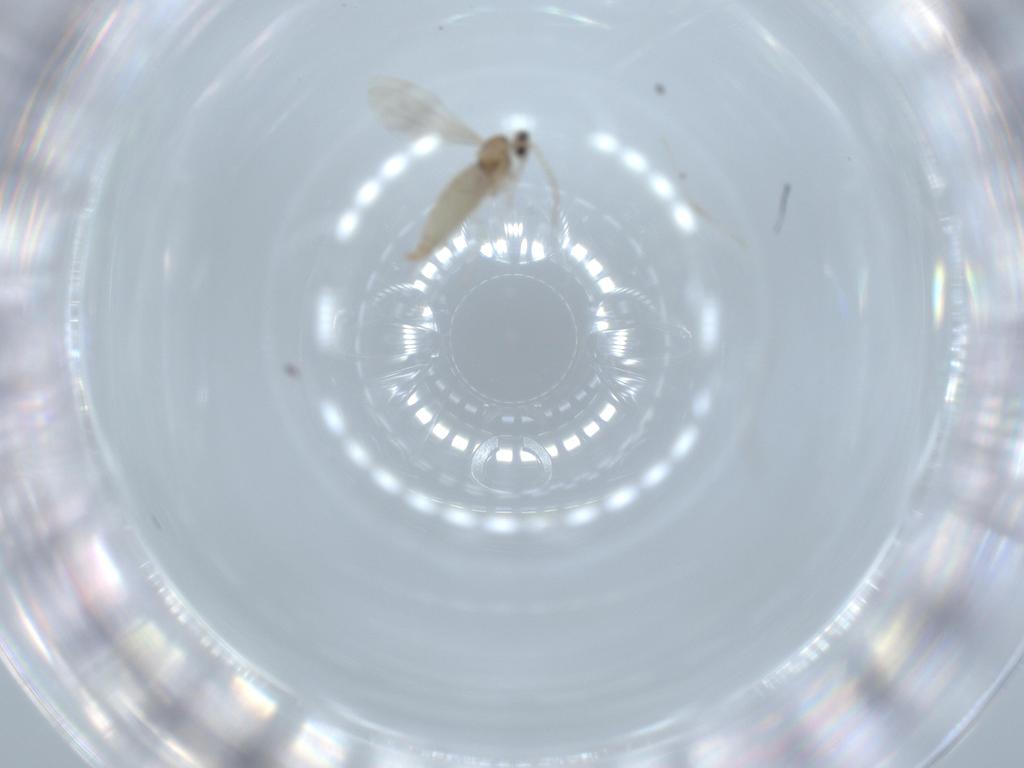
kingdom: Animalia
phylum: Arthropoda
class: Insecta
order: Diptera
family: Cecidomyiidae
